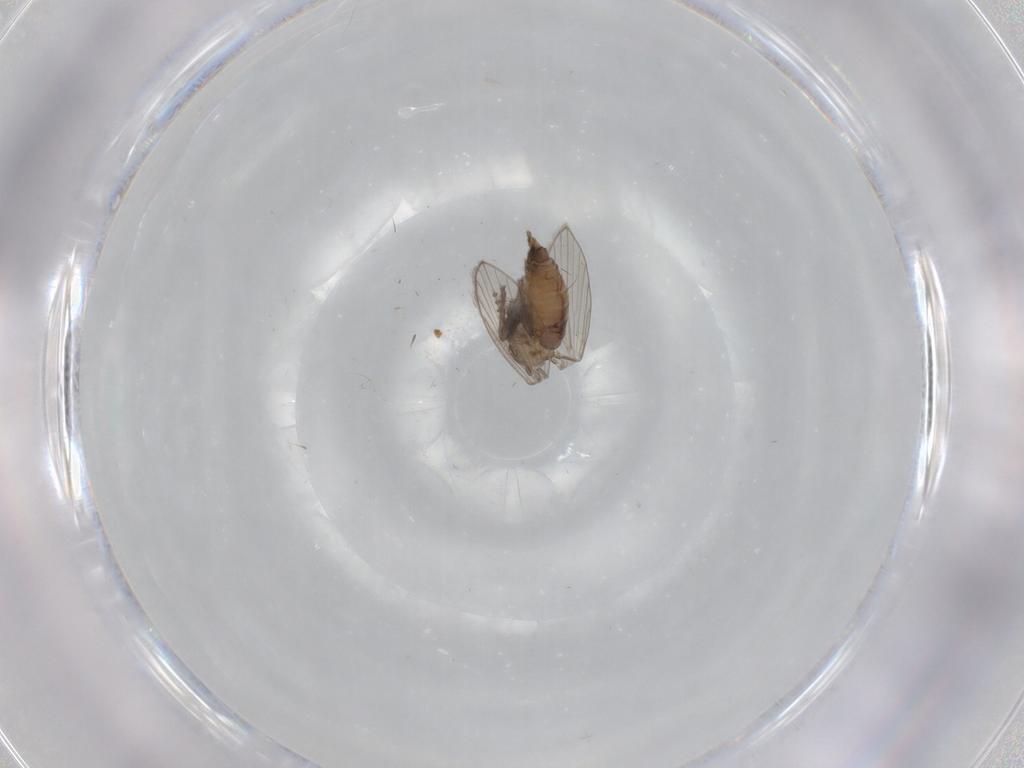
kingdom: Animalia
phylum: Arthropoda
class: Insecta
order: Diptera
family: Psychodidae
